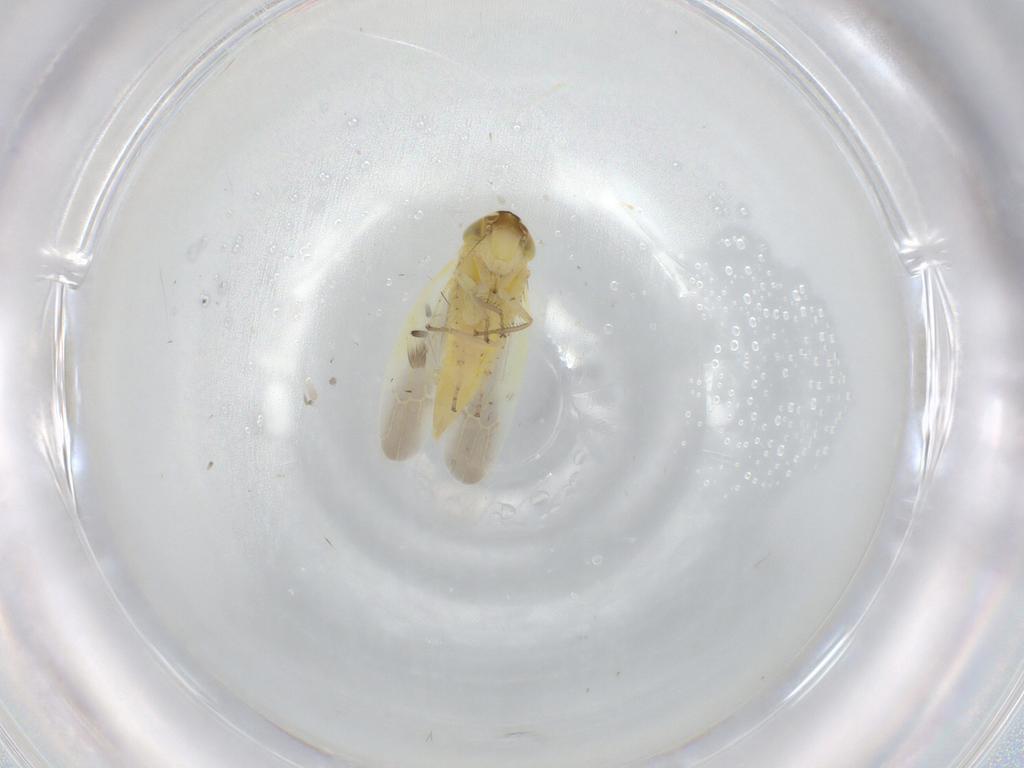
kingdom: Animalia
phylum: Arthropoda
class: Insecta
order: Hemiptera
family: Cicadellidae
